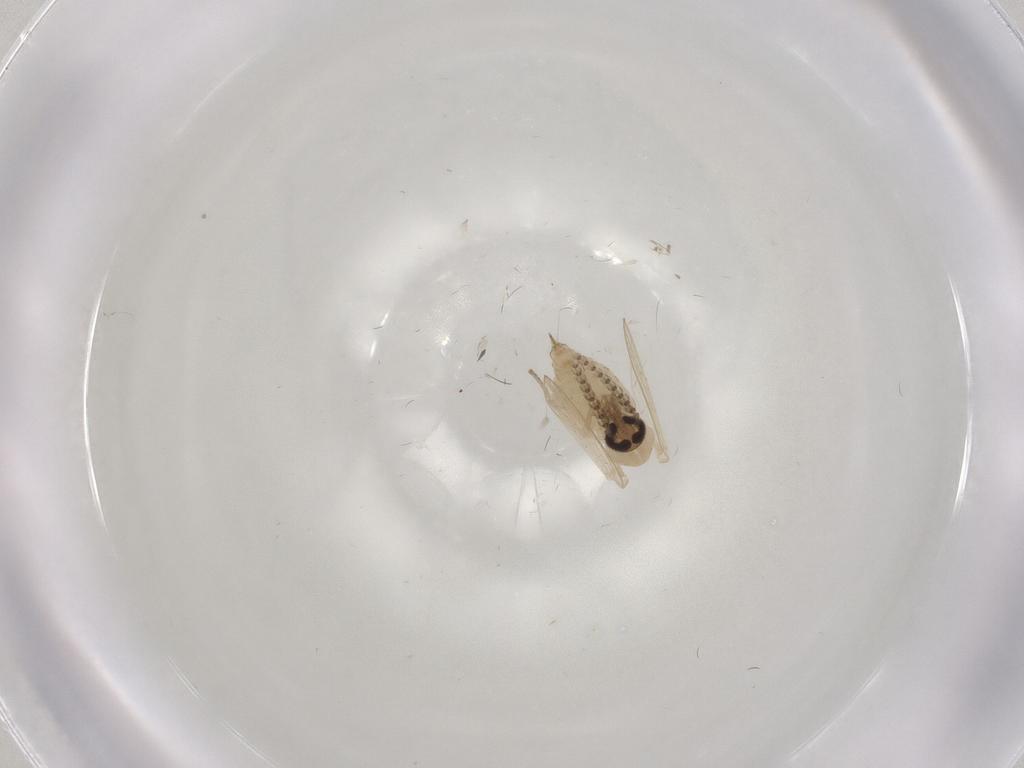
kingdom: Animalia
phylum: Arthropoda
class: Insecta
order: Diptera
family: Psychodidae
